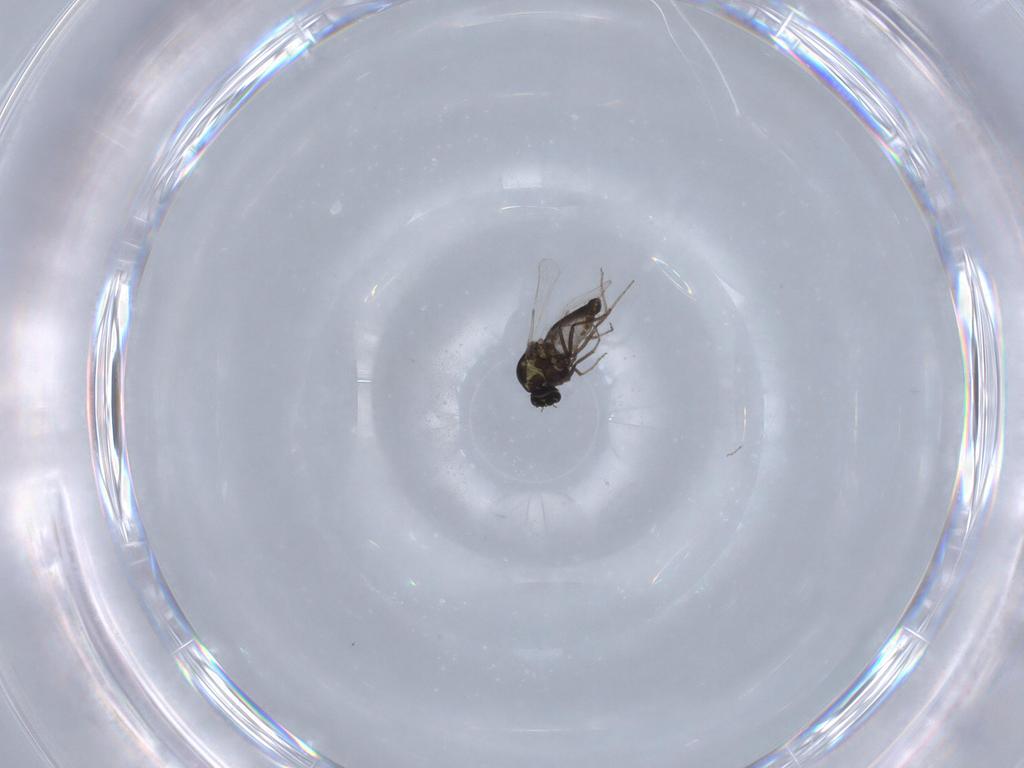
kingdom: Animalia
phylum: Arthropoda
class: Insecta
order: Diptera
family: Ceratopogonidae
